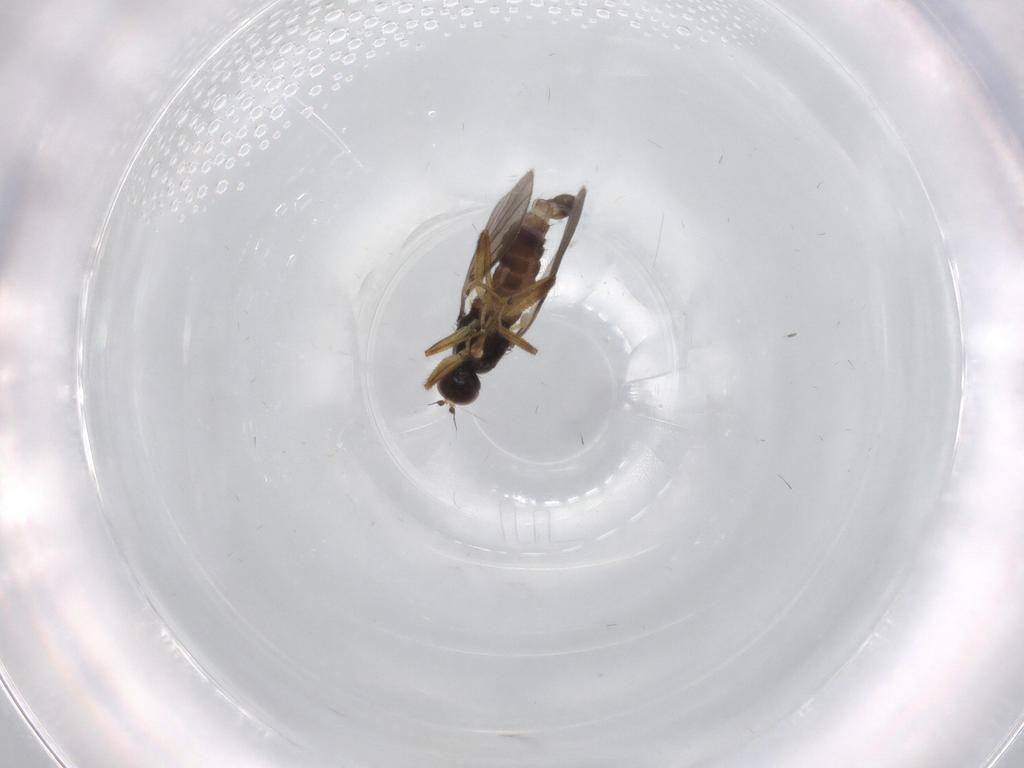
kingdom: Animalia
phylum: Arthropoda
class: Insecta
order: Diptera
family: Hybotidae
